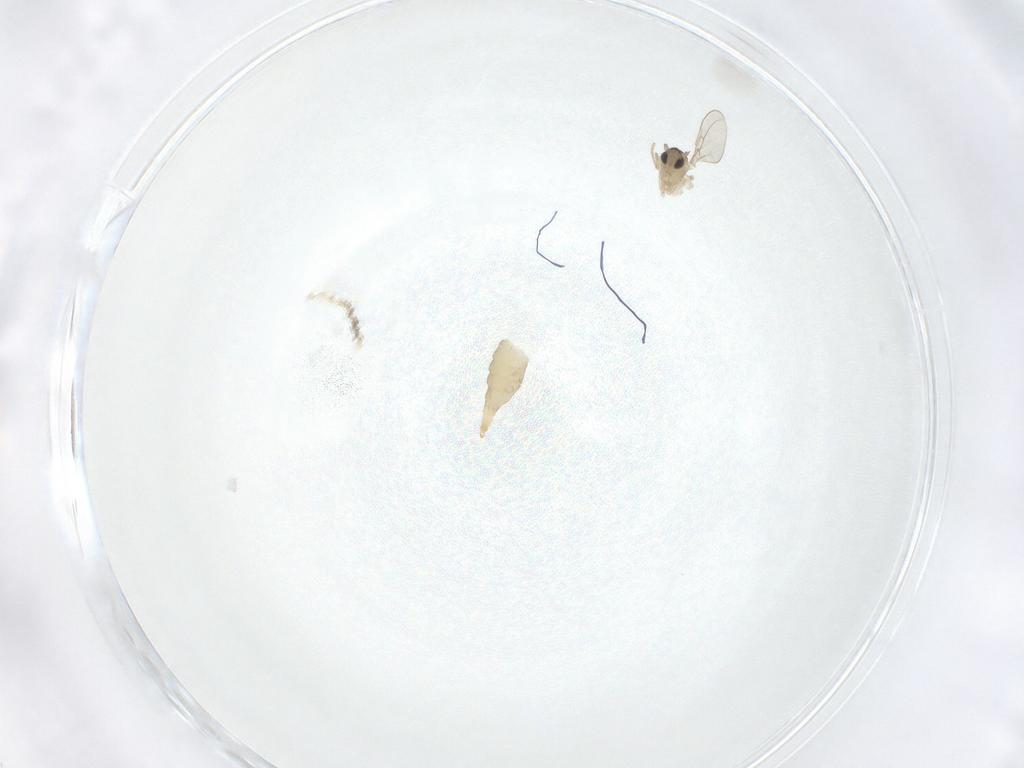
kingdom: Animalia
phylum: Arthropoda
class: Insecta
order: Diptera
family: Cecidomyiidae
